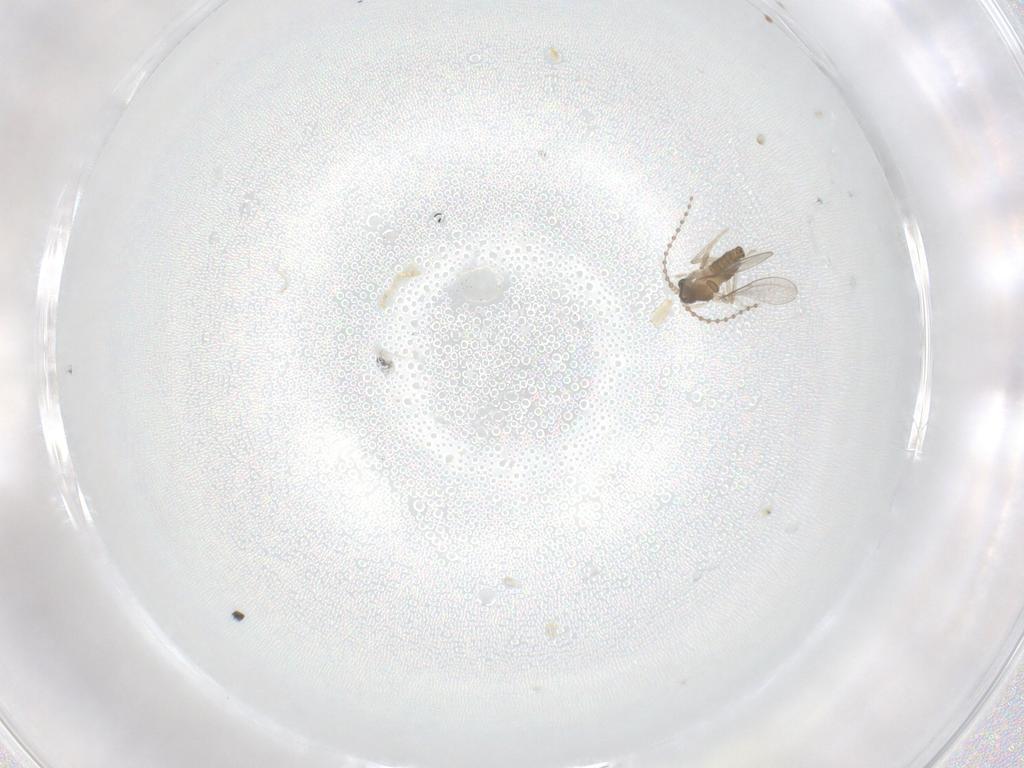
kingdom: Animalia
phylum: Arthropoda
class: Insecta
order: Diptera
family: Cecidomyiidae
